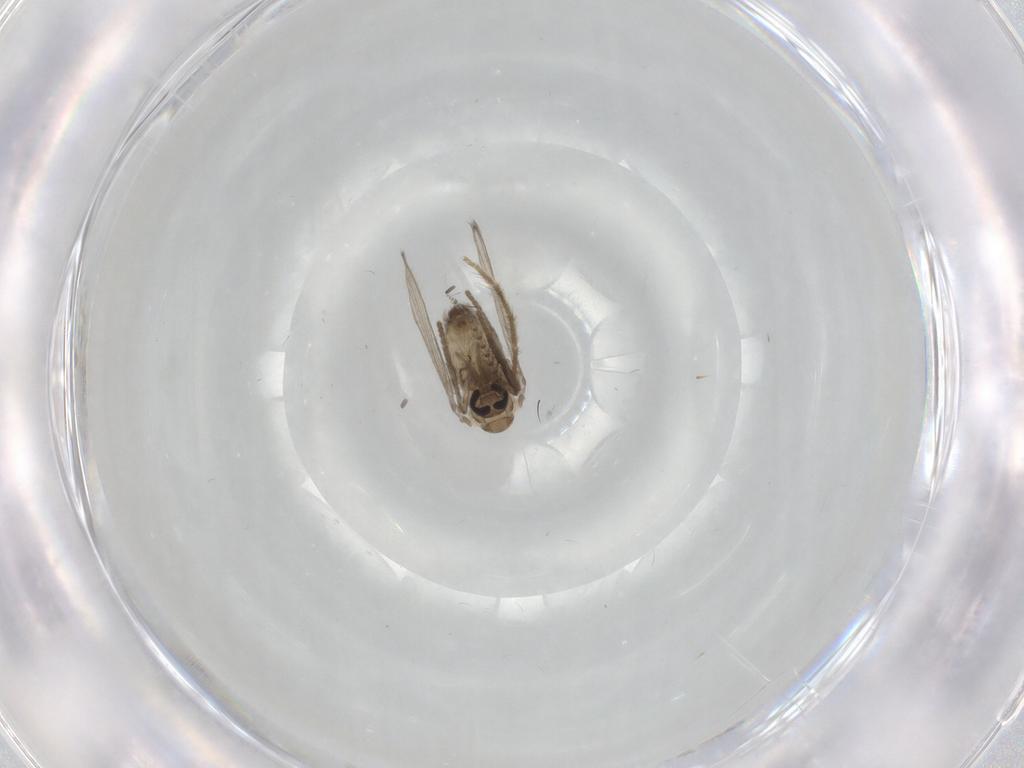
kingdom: Animalia
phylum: Arthropoda
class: Insecta
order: Diptera
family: Psychodidae
